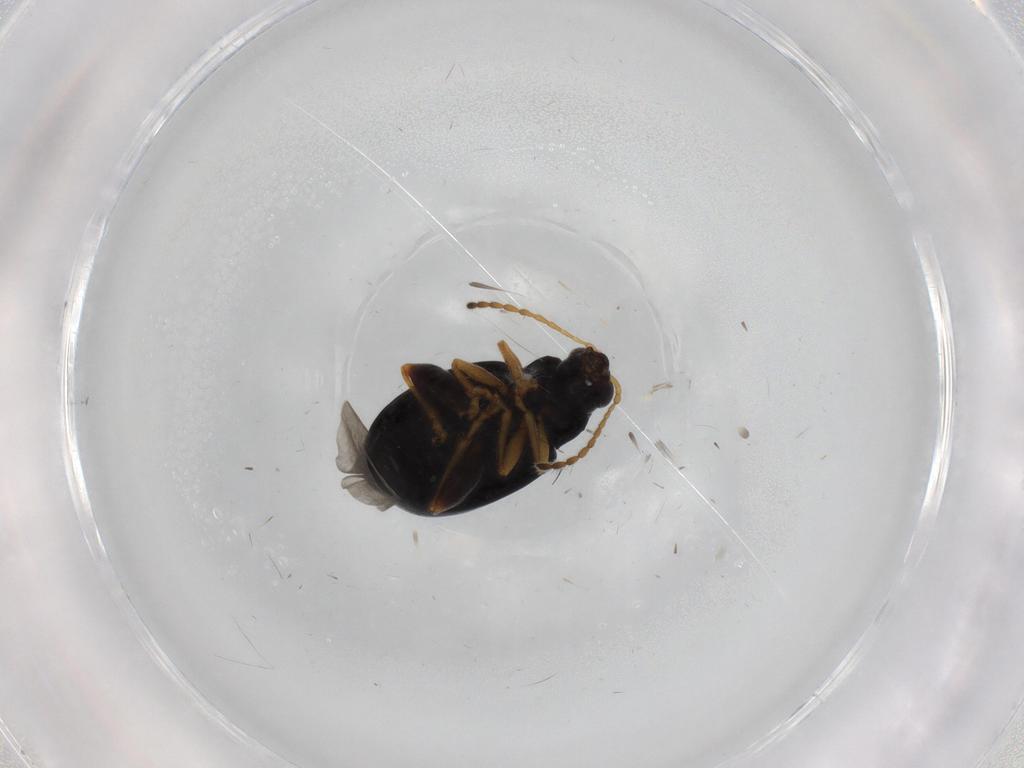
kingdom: Animalia
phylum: Arthropoda
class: Insecta
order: Coleoptera
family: Chrysomelidae
